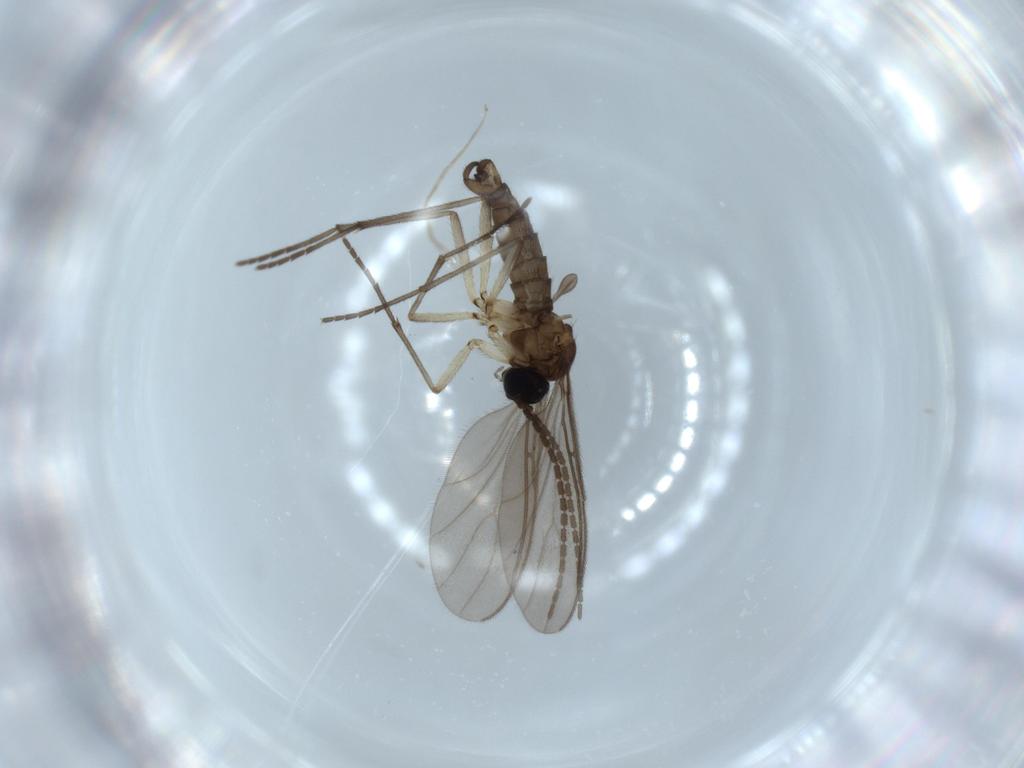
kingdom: Animalia
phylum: Arthropoda
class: Insecta
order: Diptera
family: Sciaridae
